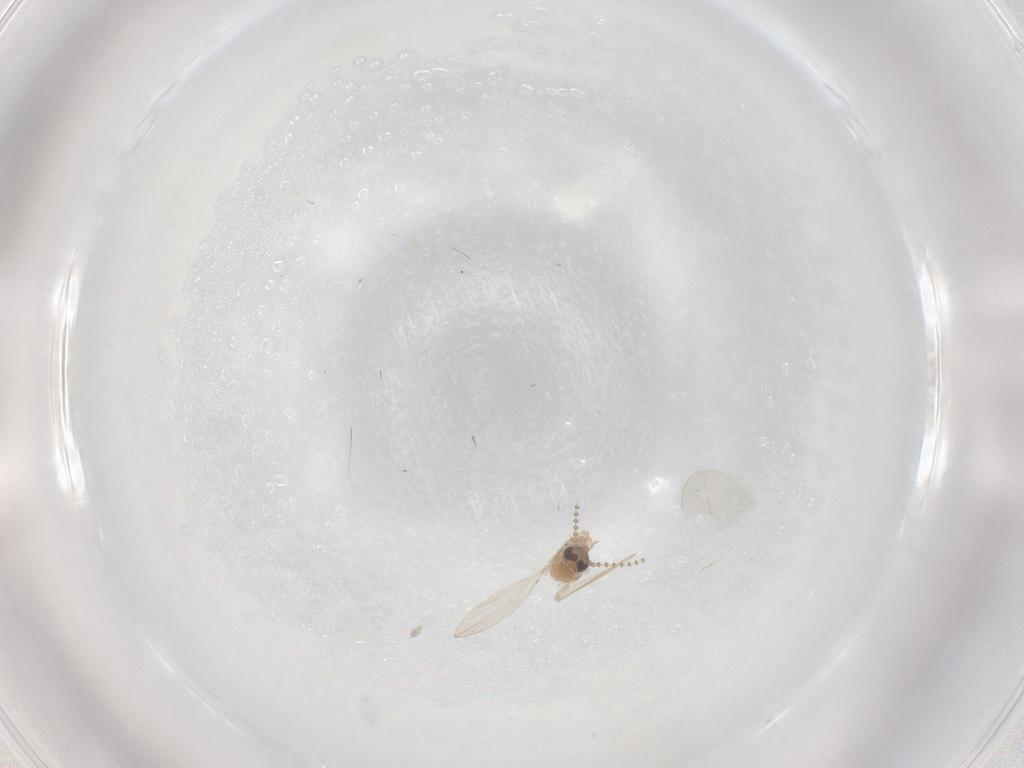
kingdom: Animalia
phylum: Arthropoda
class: Insecta
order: Diptera
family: Psychodidae
